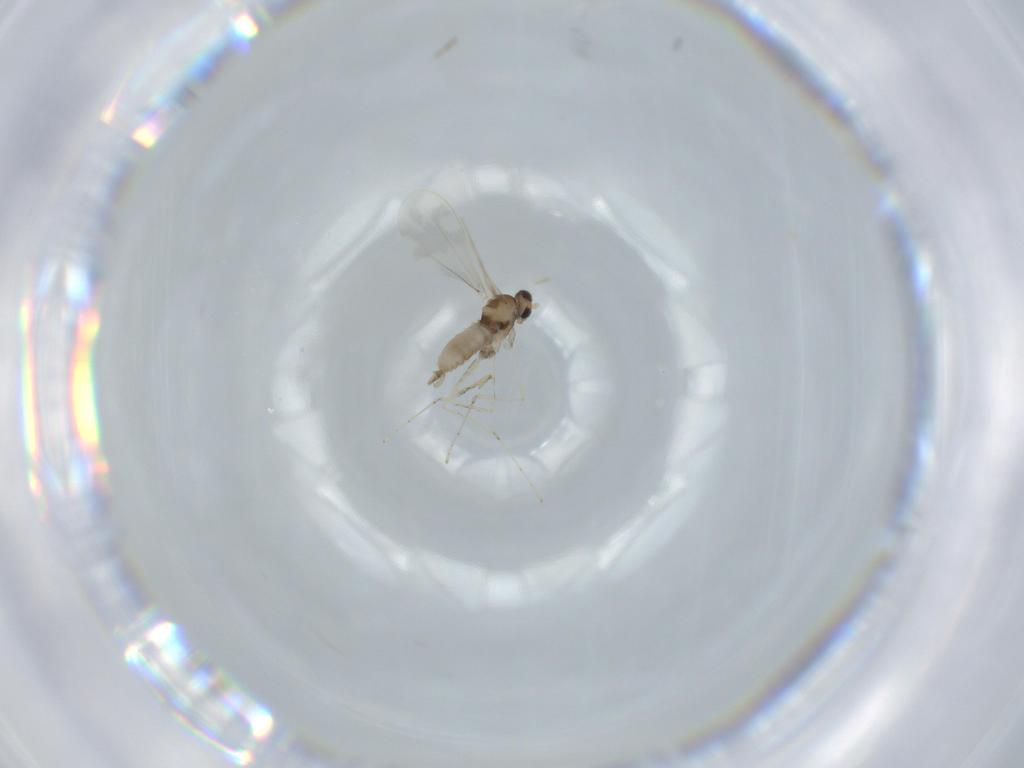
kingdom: Animalia
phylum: Arthropoda
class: Insecta
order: Diptera
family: Cecidomyiidae
